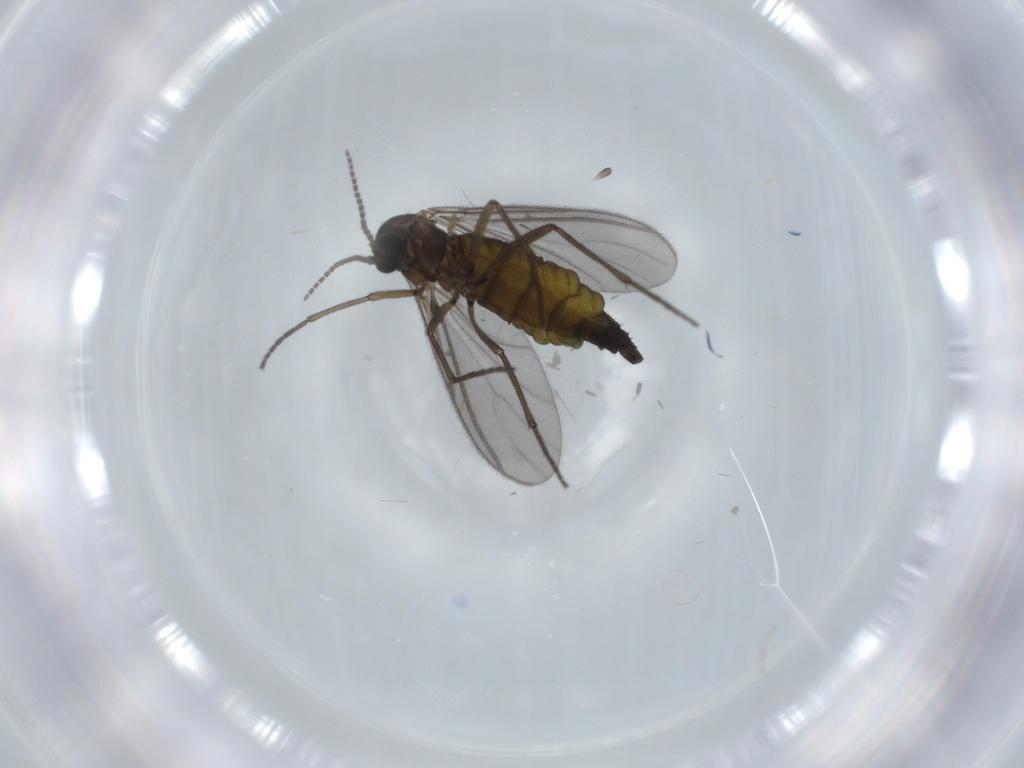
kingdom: Animalia
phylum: Arthropoda
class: Insecta
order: Diptera
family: Sciaridae
